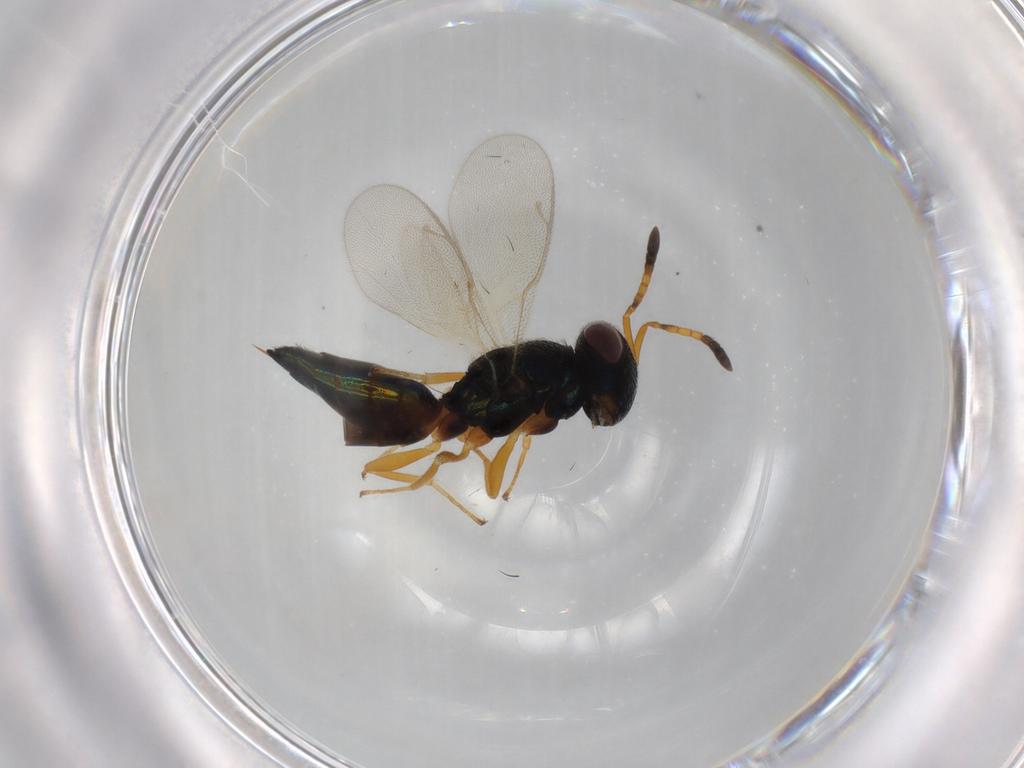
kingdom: Animalia
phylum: Arthropoda
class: Insecta
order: Hymenoptera
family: Pteromalidae
